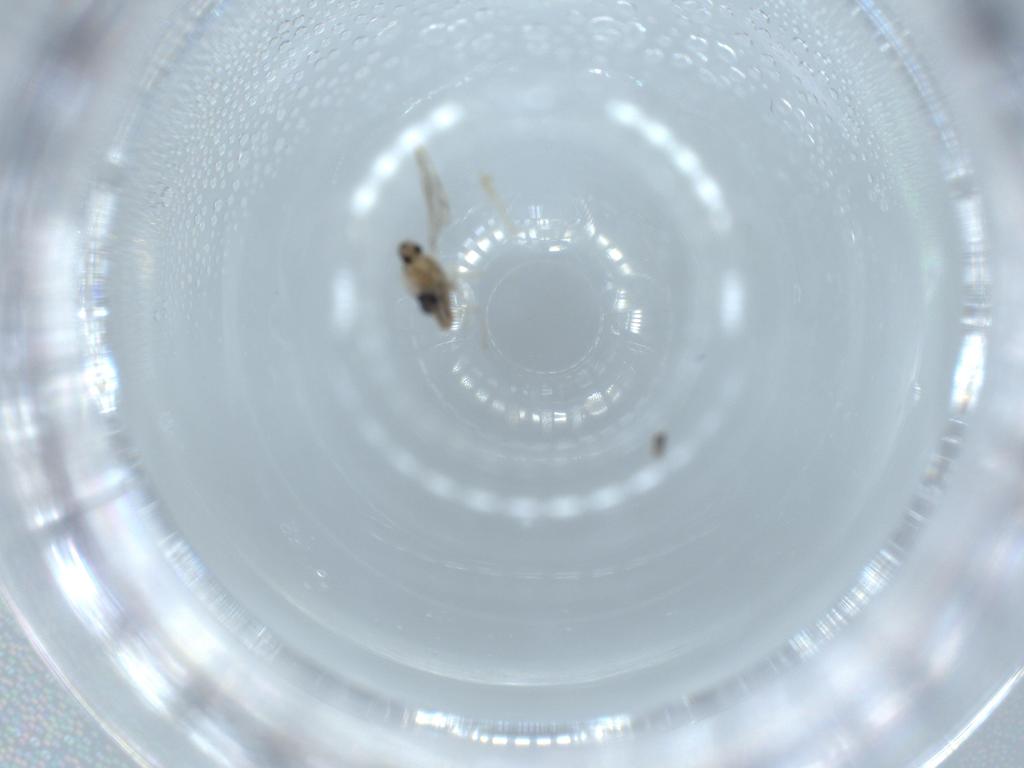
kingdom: Animalia
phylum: Arthropoda
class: Insecta
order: Diptera
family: Cecidomyiidae
